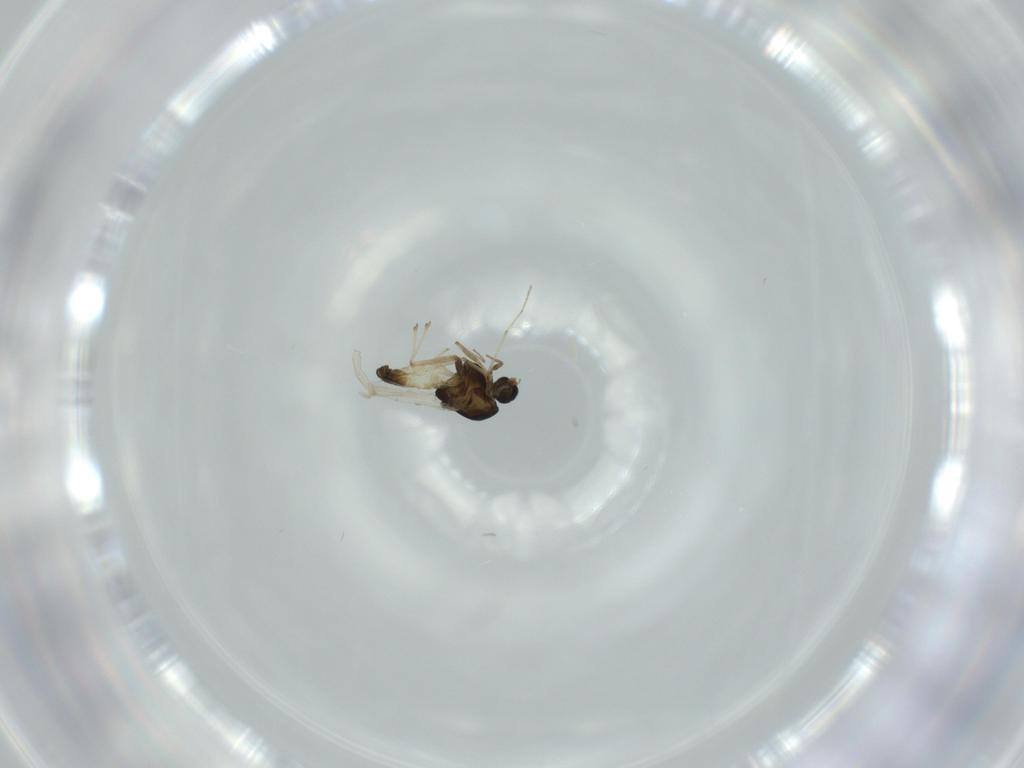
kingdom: Animalia
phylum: Arthropoda
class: Insecta
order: Diptera
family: Chironomidae
